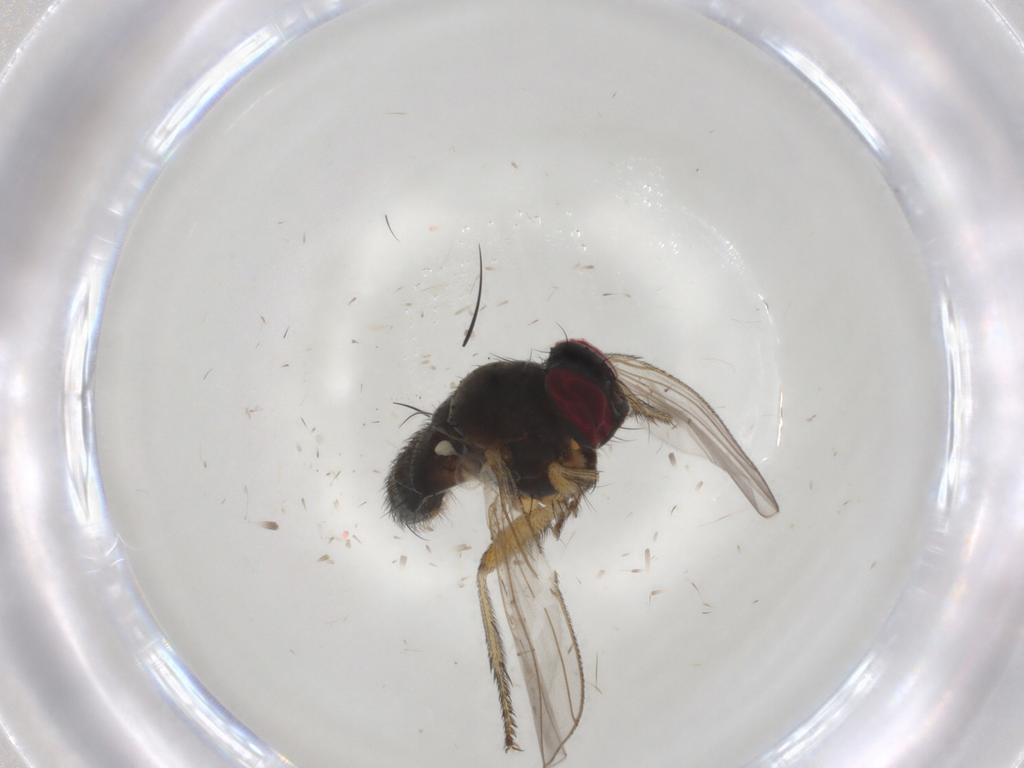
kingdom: Animalia
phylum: Arthropoda
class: Insecta
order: Diptera
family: Muscidae
